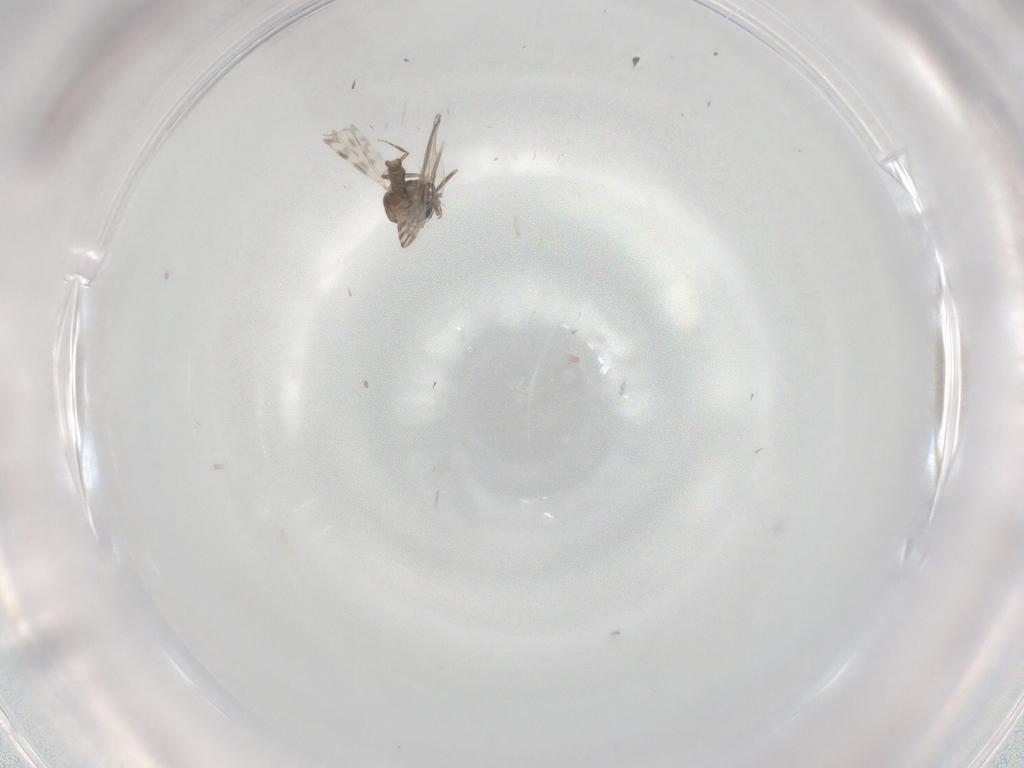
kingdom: Animalia
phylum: Arthropoda
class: Insecta
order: Diptera
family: Ceratopogonidae
